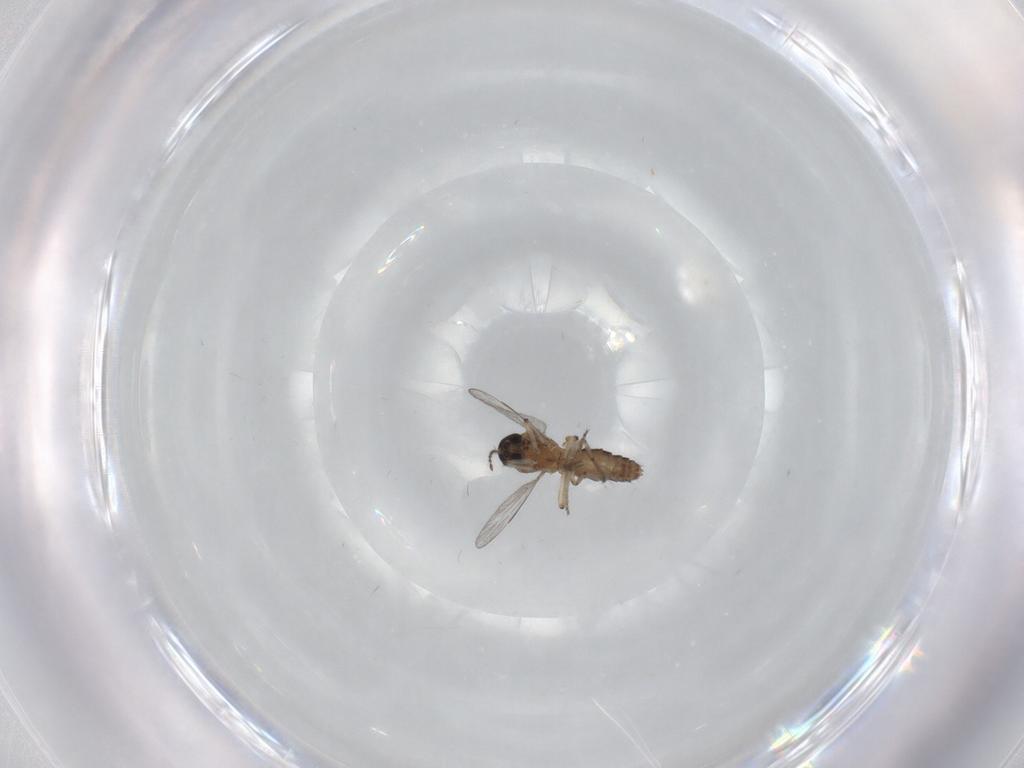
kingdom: Animalia
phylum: Arthropoda
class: Insecta
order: Diptera
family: Ceratopogonidae
